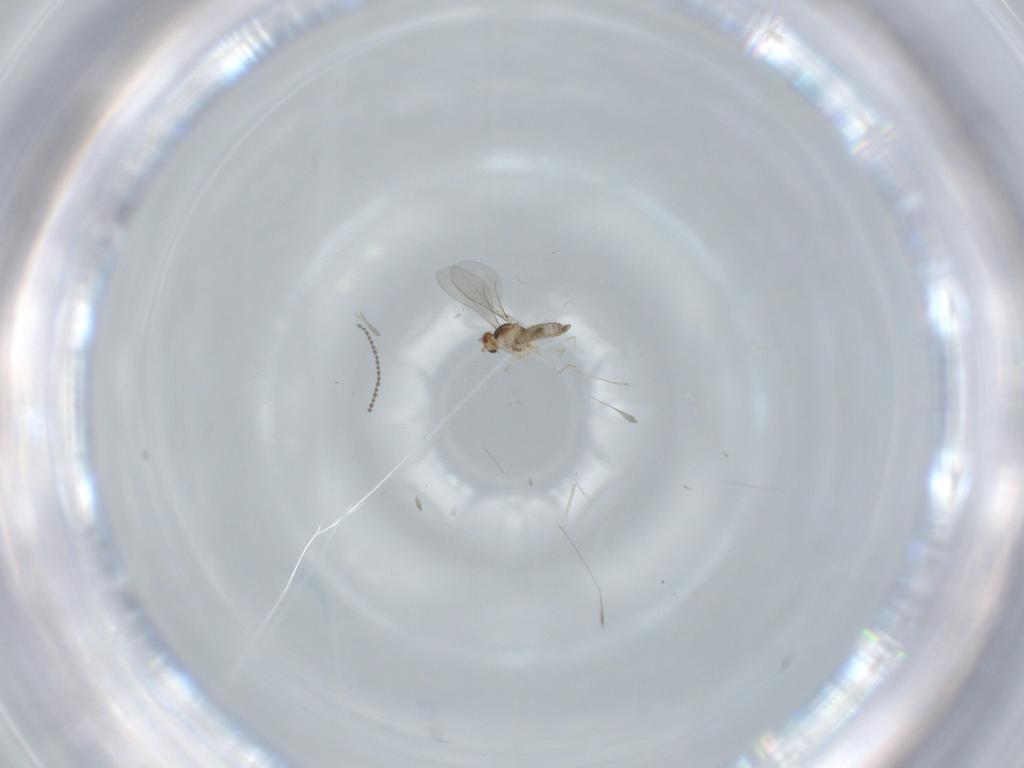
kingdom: Animalia
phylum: Arthropoda
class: Insecta
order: Diptera
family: Cecidomyiidae
